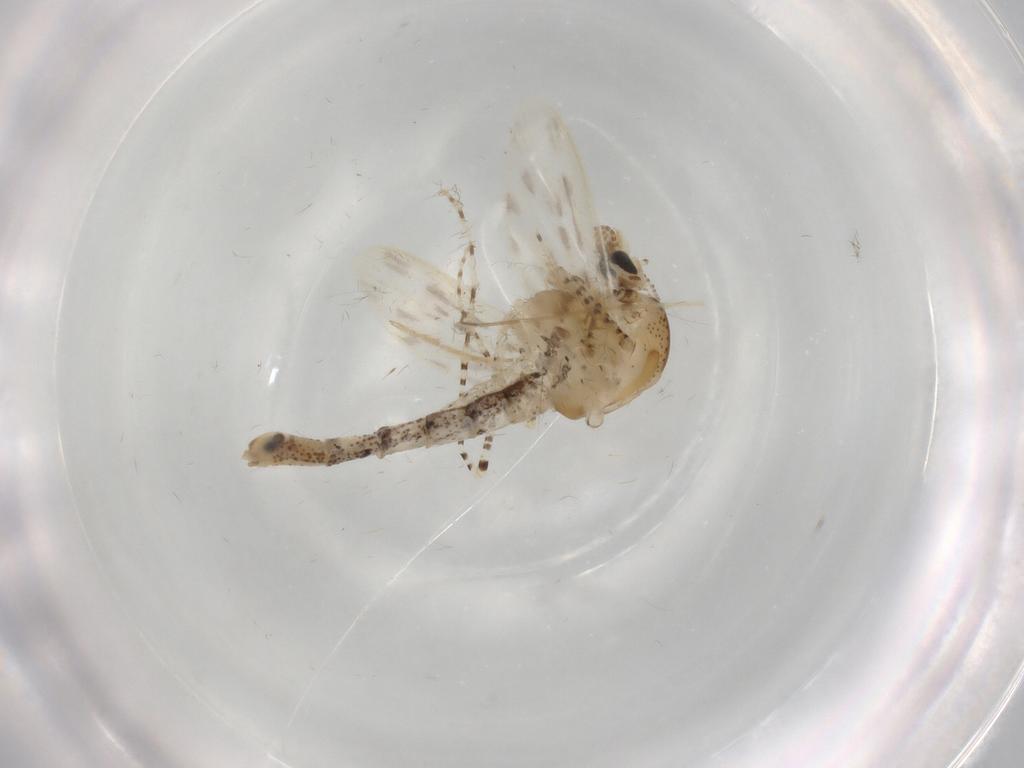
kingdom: Animalia
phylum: Arthropoda
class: Insecta
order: Diptera
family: Chaoboridae
